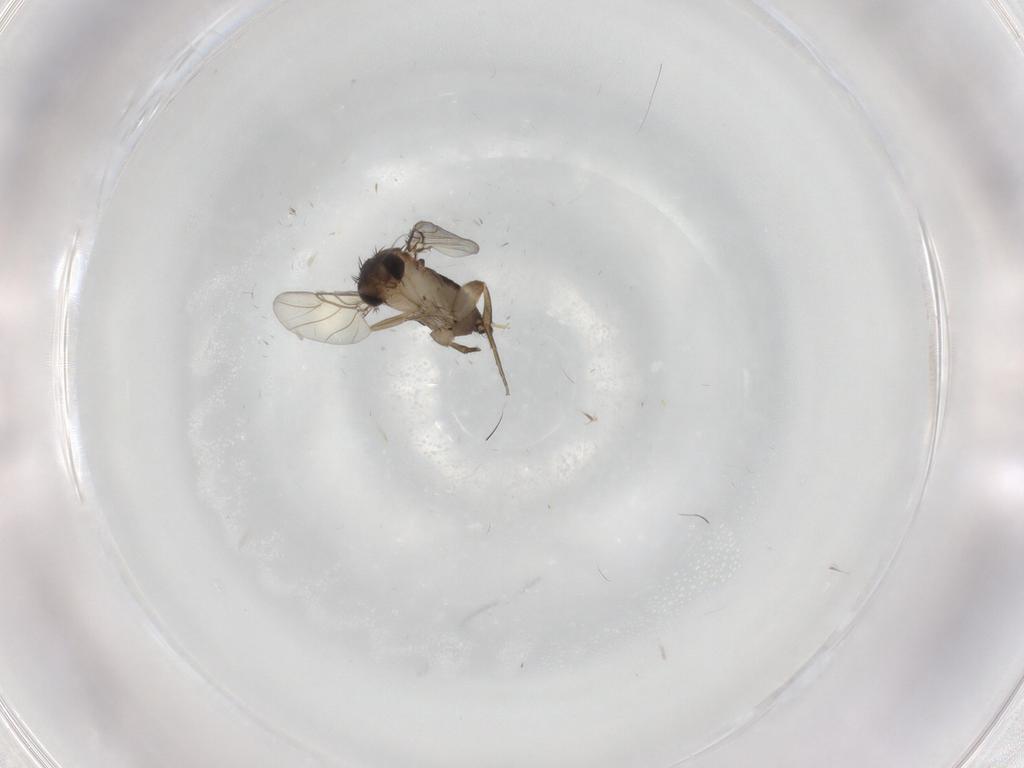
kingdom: Animalia
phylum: Arthropoda
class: Insecta
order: Diptera
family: Phoridae
